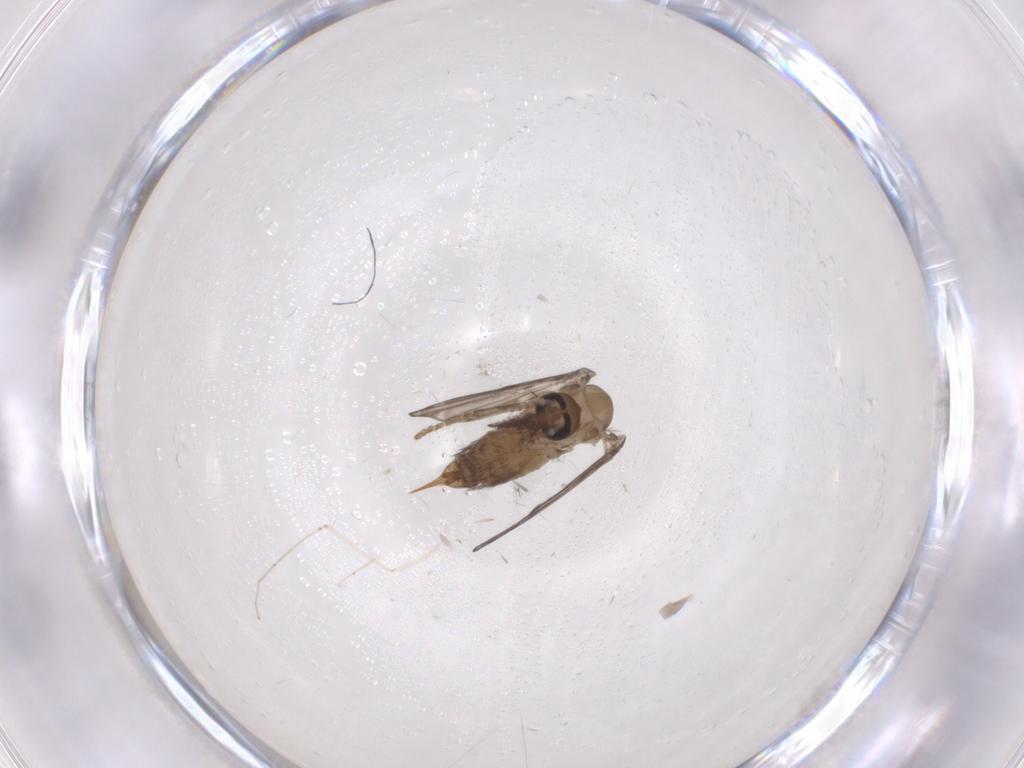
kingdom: Animalia
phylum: Arthropoda
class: Insecta
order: Diptera
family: Psychodidae
